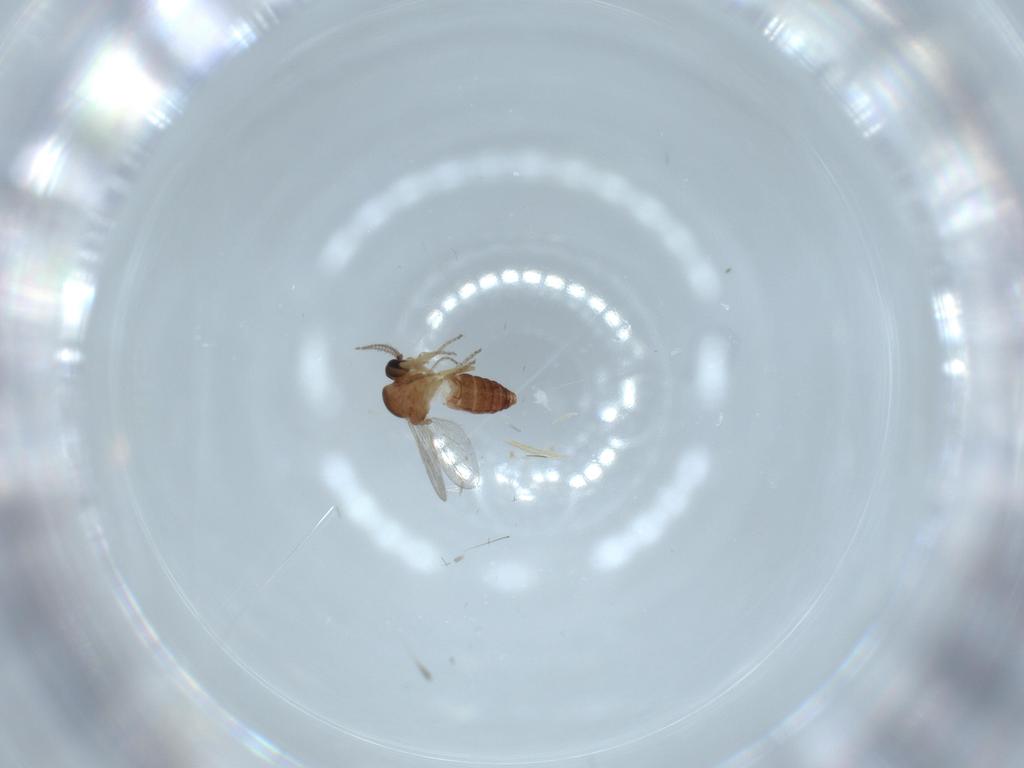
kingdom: Animalia
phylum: Arthropoda
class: Insecta
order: Diptera
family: Sciaridae
